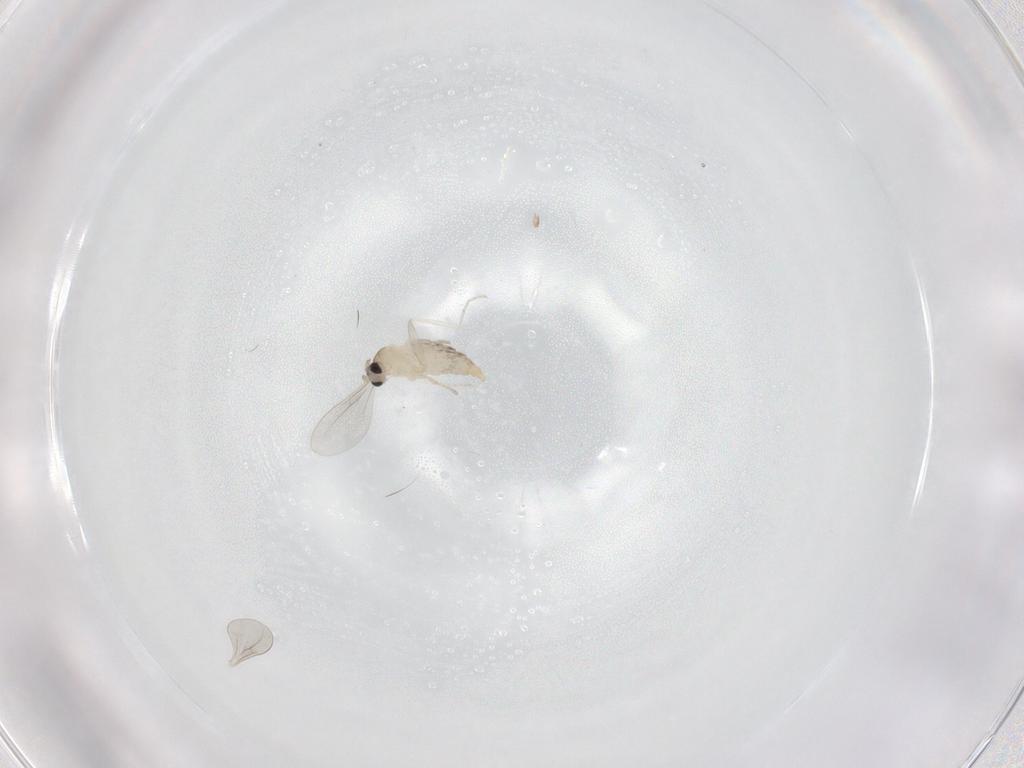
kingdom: Animalia
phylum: Arthropoda
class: Insecta
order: Diptera
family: Cecidomyiidae
